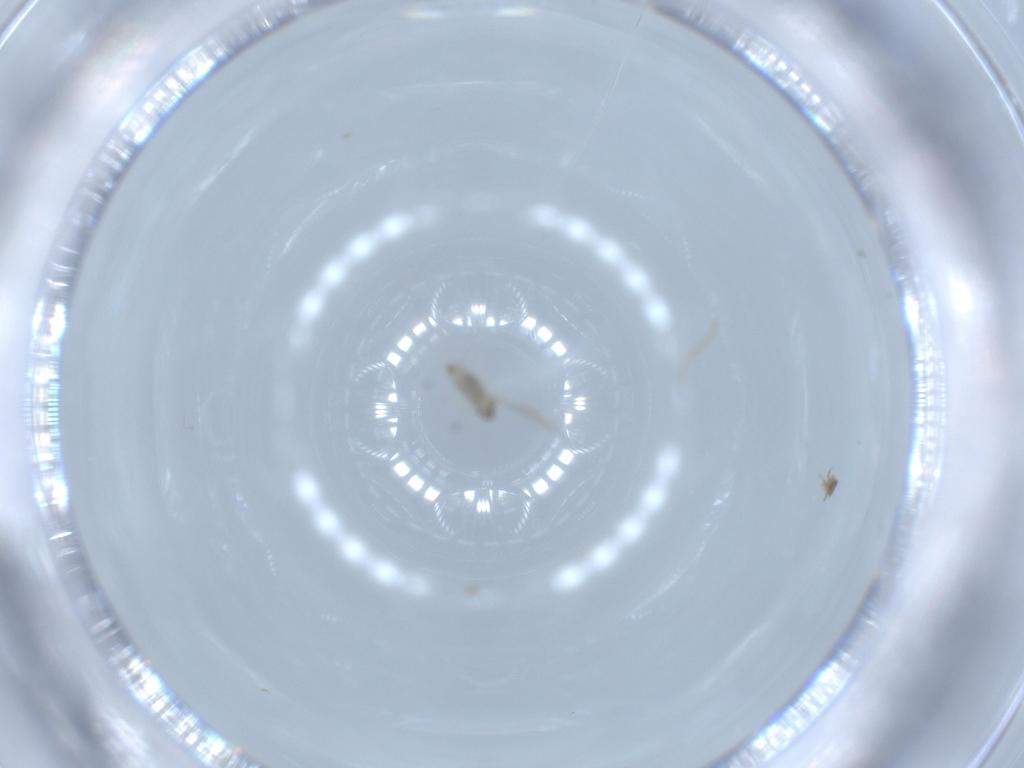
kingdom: Animalia
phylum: Arthropoda
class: Insecta
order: Diptera
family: Cecidomyiidae
